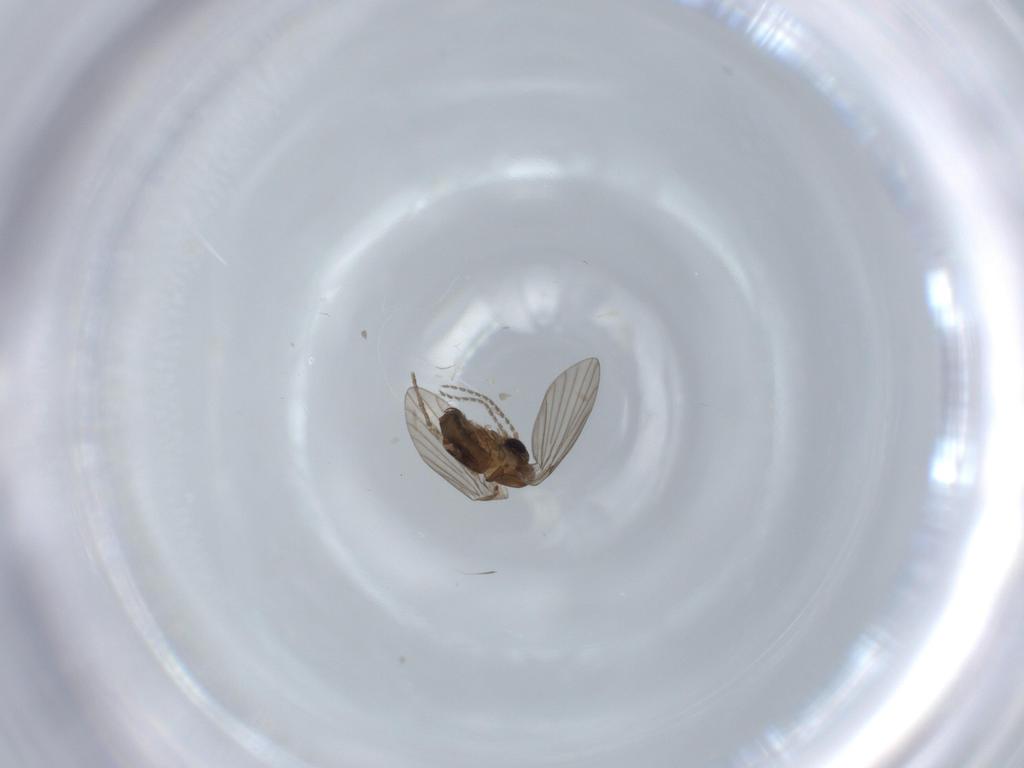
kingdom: Animalia
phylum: Arthropoda
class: Insecta
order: Diptera
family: Psychodidae
